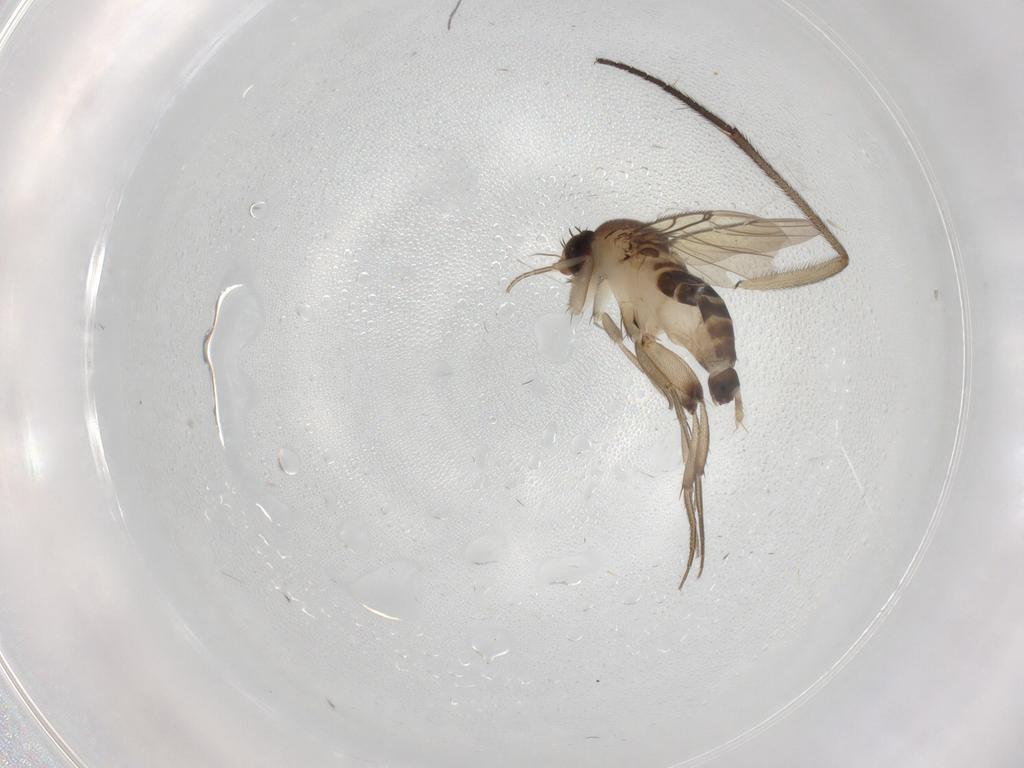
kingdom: Animalia
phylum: Arthropoda
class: Insecta
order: Diptera
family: Phoridae
